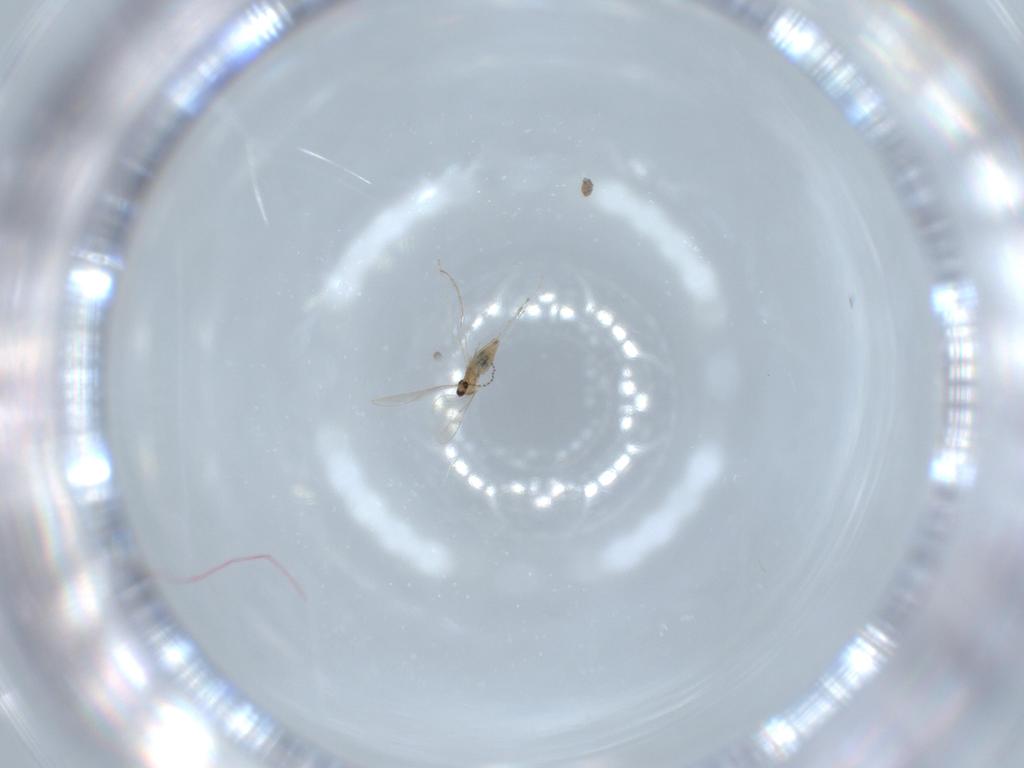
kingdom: Animalia
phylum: Arthropoda
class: Insecta
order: Diptera
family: Cecidomyiidae
